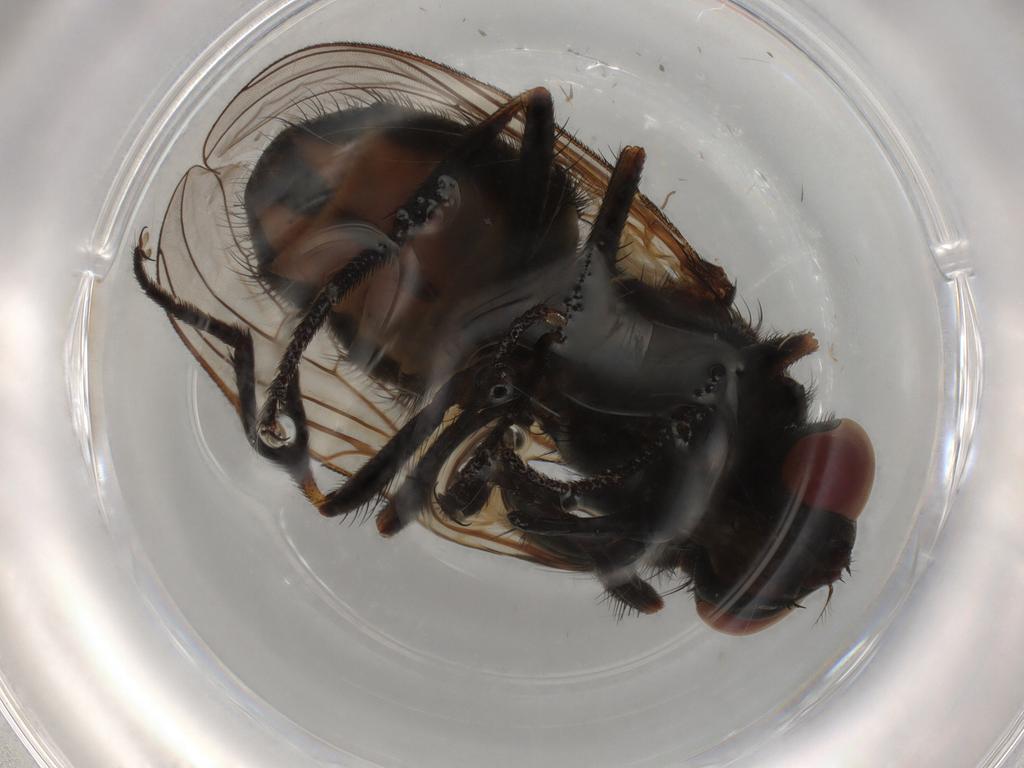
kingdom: Animalia
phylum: Arthropoda
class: Insecta
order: Diptera
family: Muscidae
